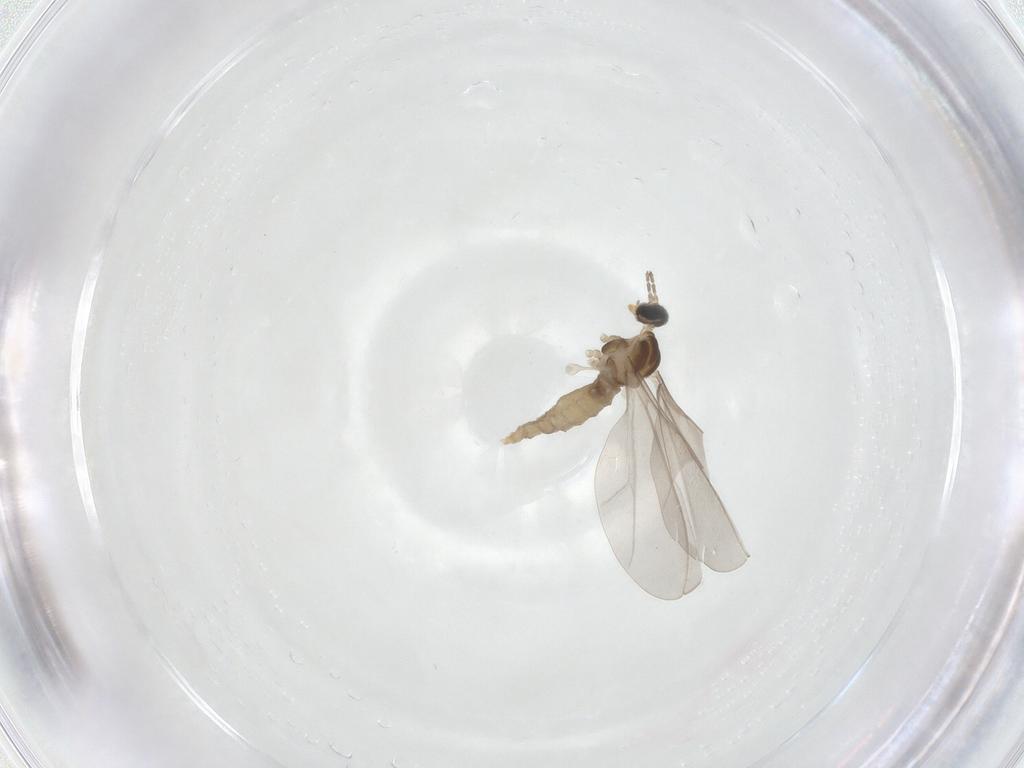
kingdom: Animalia
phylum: Arthropoda
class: Insecta
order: Diptera
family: Cecidomyiidae
